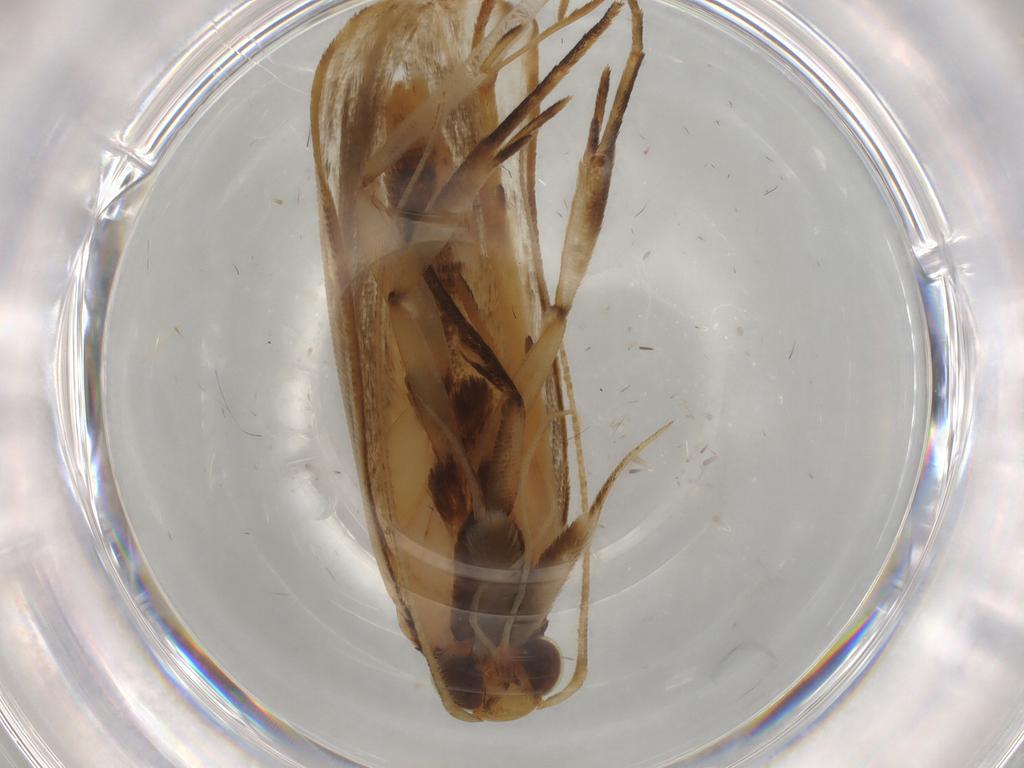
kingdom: Animalia
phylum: Arthropoda
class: Insecta
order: Lepidoptera
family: Gelechiidae
